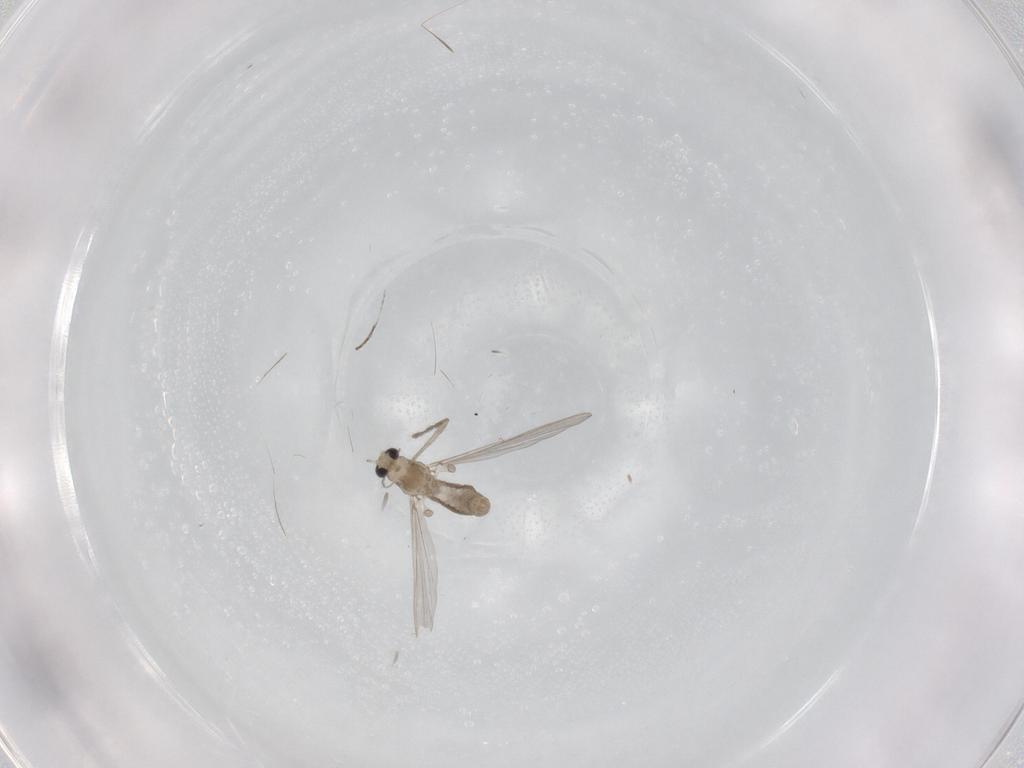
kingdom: Animalia
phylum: Arthropoda
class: Insecta
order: Diptera
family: Chironomidae
